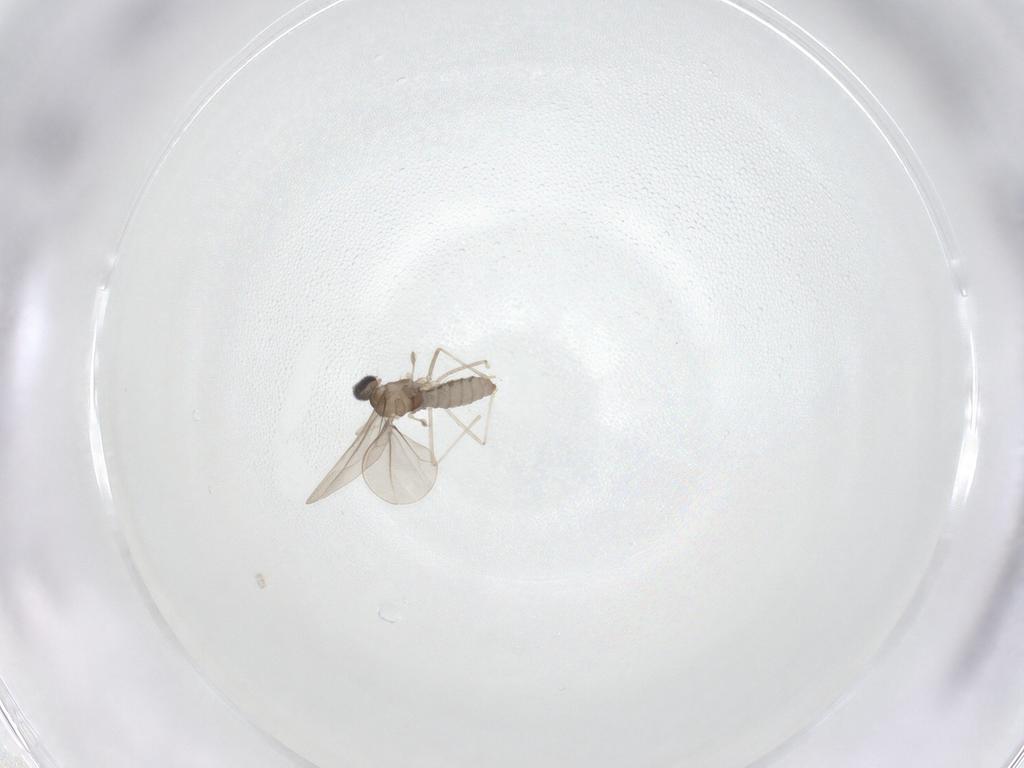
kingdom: Animalia
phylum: Arthropoda
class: Insecta
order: Diptera
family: Cecidomyiidae
